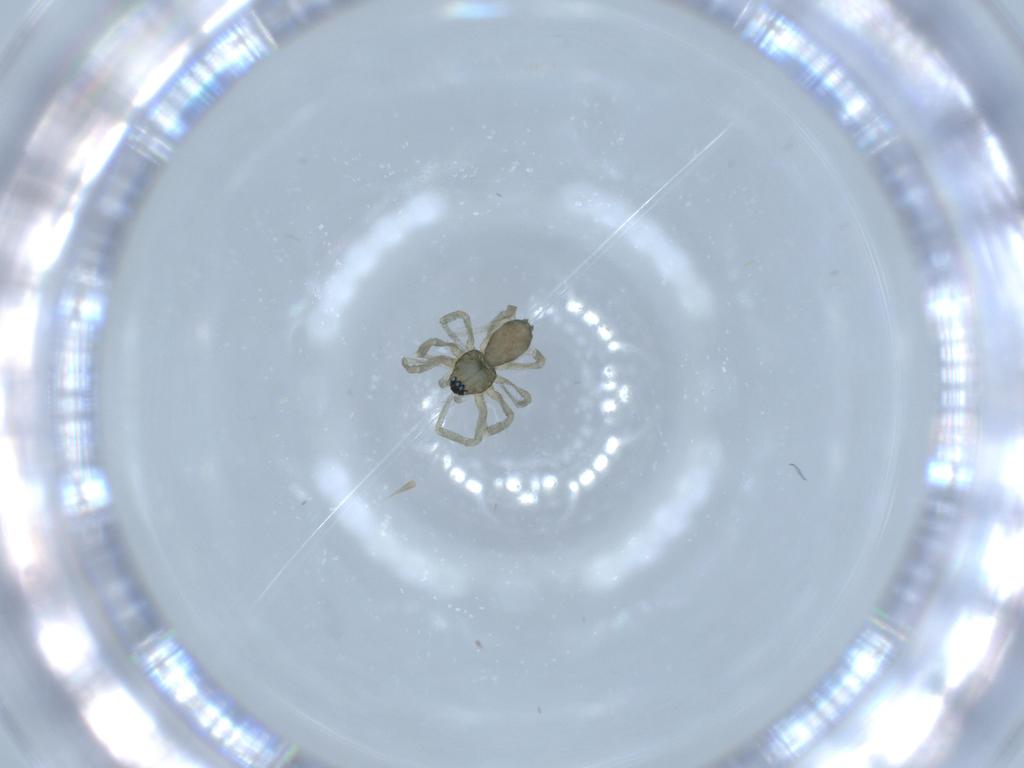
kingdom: Animalia
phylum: Arthropoda
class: Arachnida
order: Araneae
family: Linyphiidae
